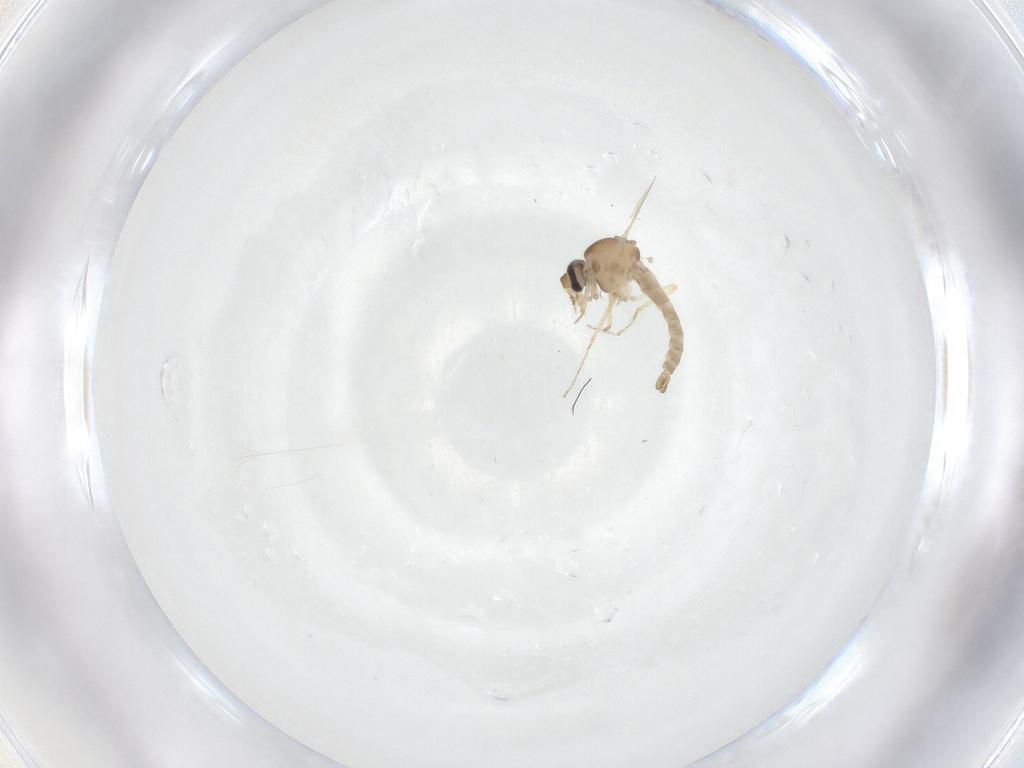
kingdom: Animalia
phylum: Arthropoda
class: Insecta
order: Diptera
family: Ceratopogonidae
